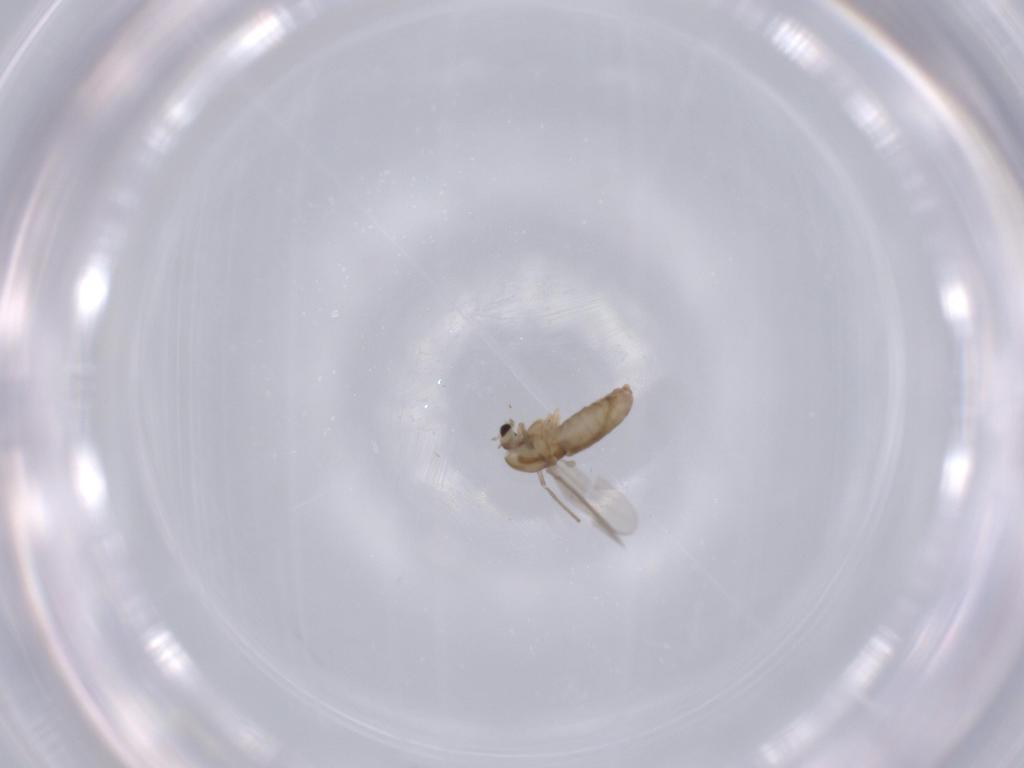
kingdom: Animalia
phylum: Arthropoda
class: Insecta
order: Diptera
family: Chironomidae
